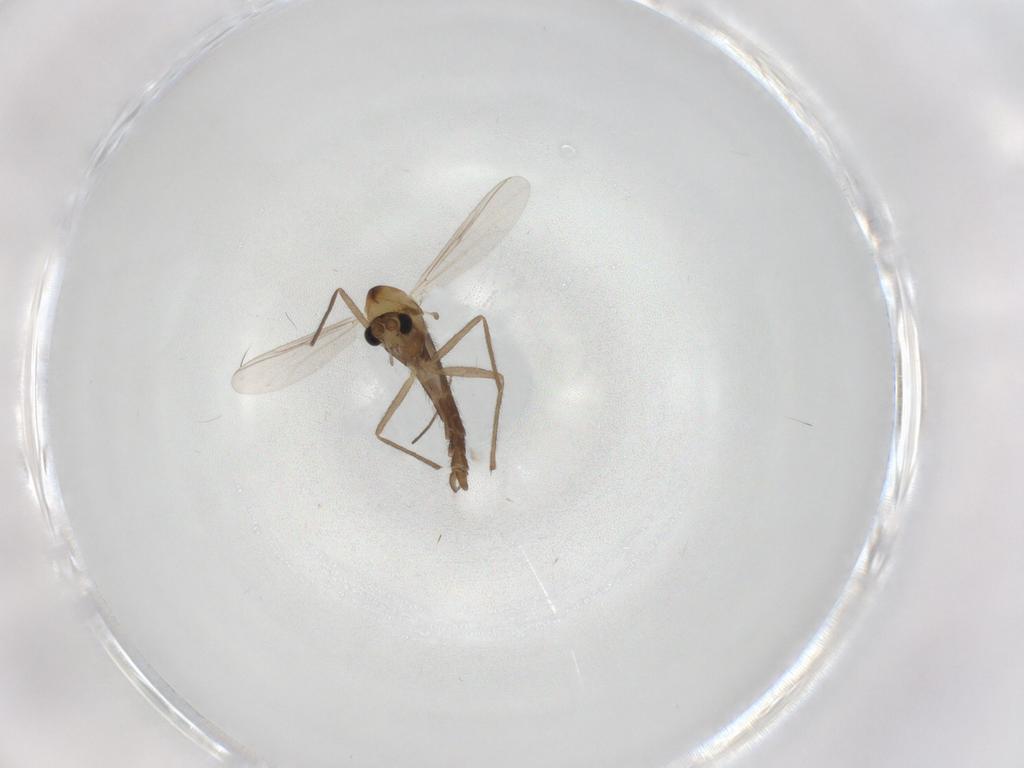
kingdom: Animalia
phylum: Arthropoda
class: Insecta
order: Diptera
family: Chironomidae
